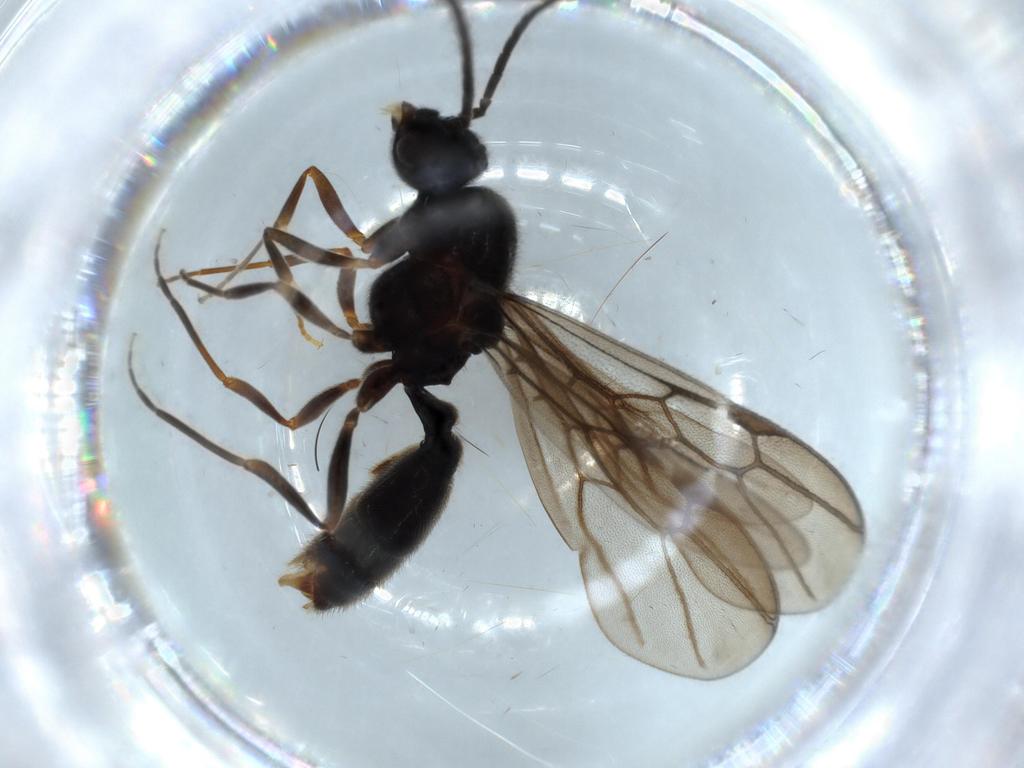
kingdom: Animalia
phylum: Arthropoda
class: Insecta
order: Hymenoptera
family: Formicidae
